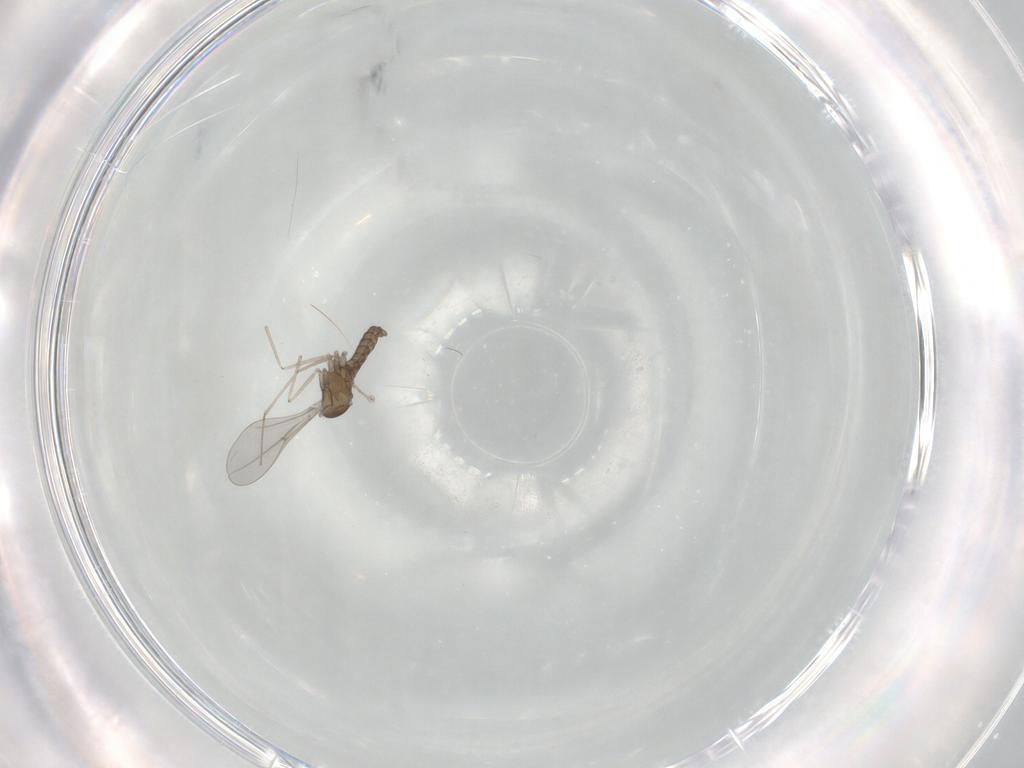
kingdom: Animalia
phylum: Arthropoda
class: Insecta
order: Diptera
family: Cecidomyiidae
